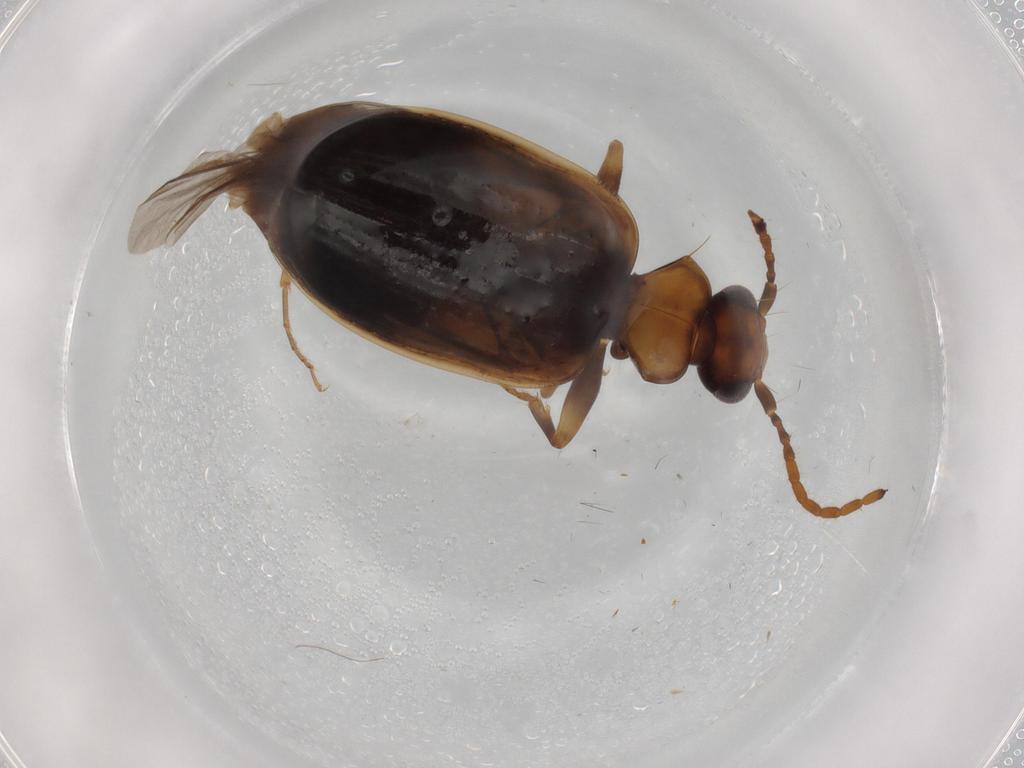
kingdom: Animalia
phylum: Arthropoda
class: Insecta
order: Coleoptera
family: Carabidae
